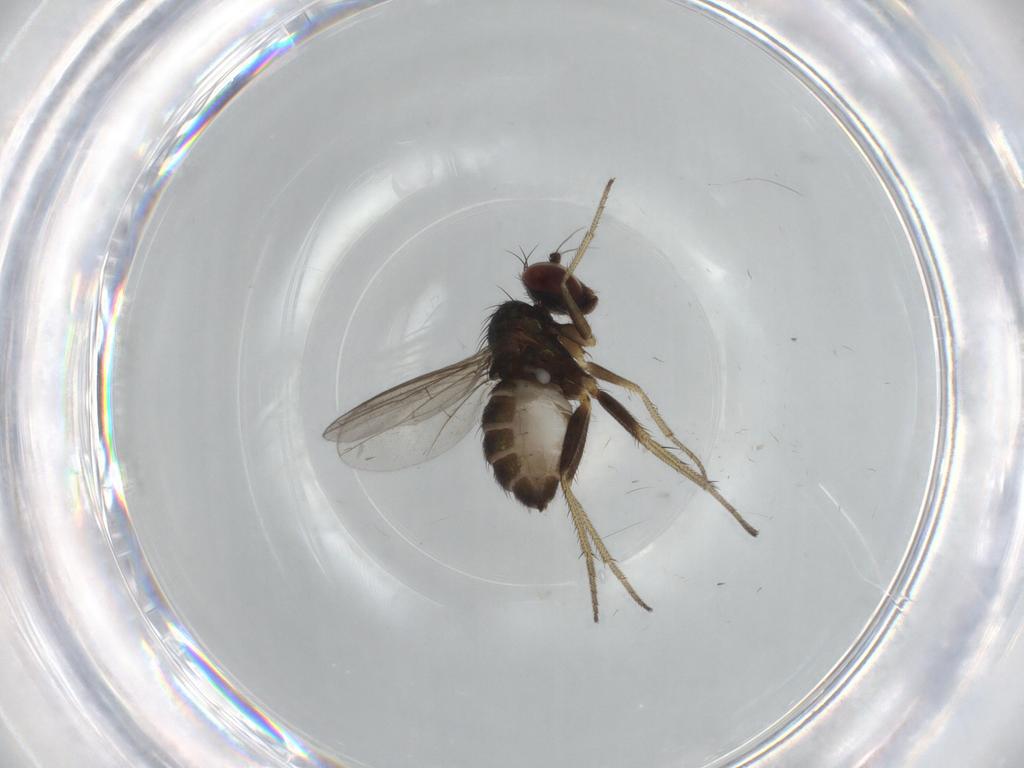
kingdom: Animalia
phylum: Arthropoda
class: Insecta
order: Diptera
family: Dolichopodidae
